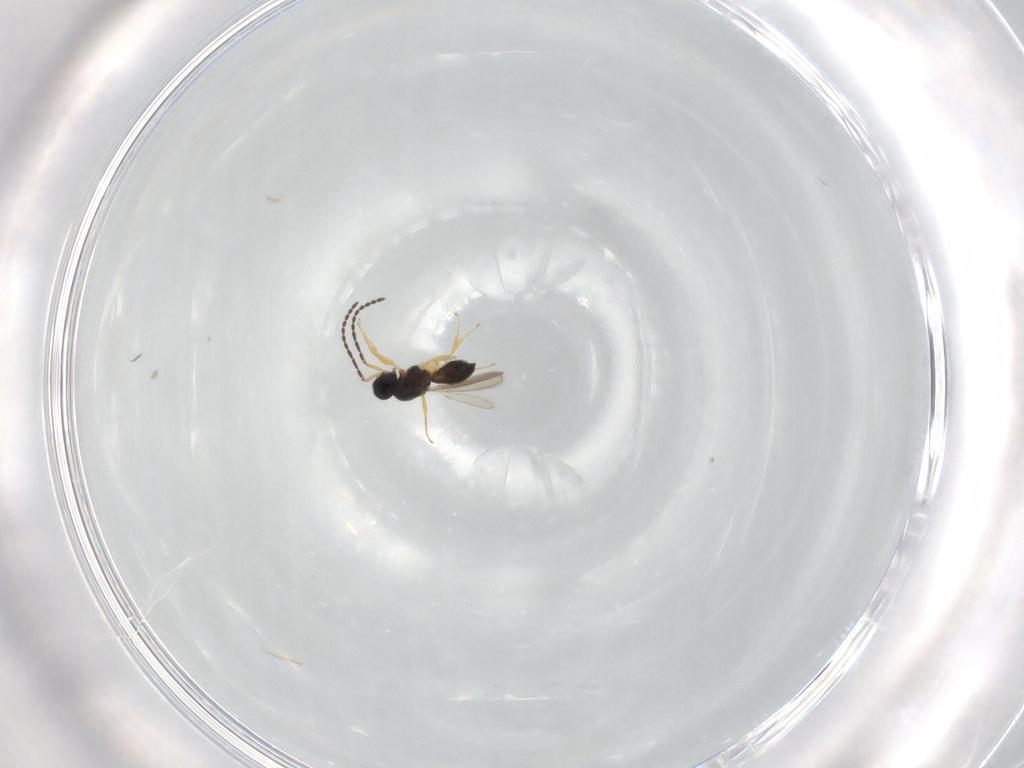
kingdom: Animalia
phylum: Arthropoda
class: Insecta
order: Hymenoptera
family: Scelionidae
